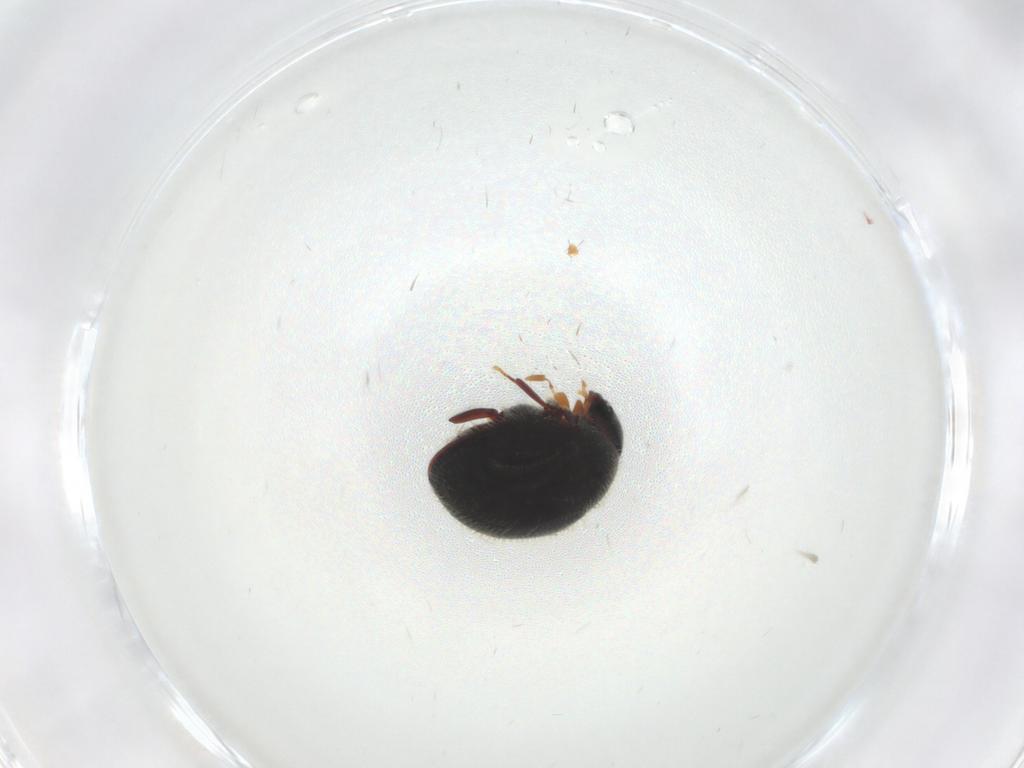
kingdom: Animalia
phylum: Arthropoda
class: Insecta
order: Coleoptera
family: Coccinellidae
